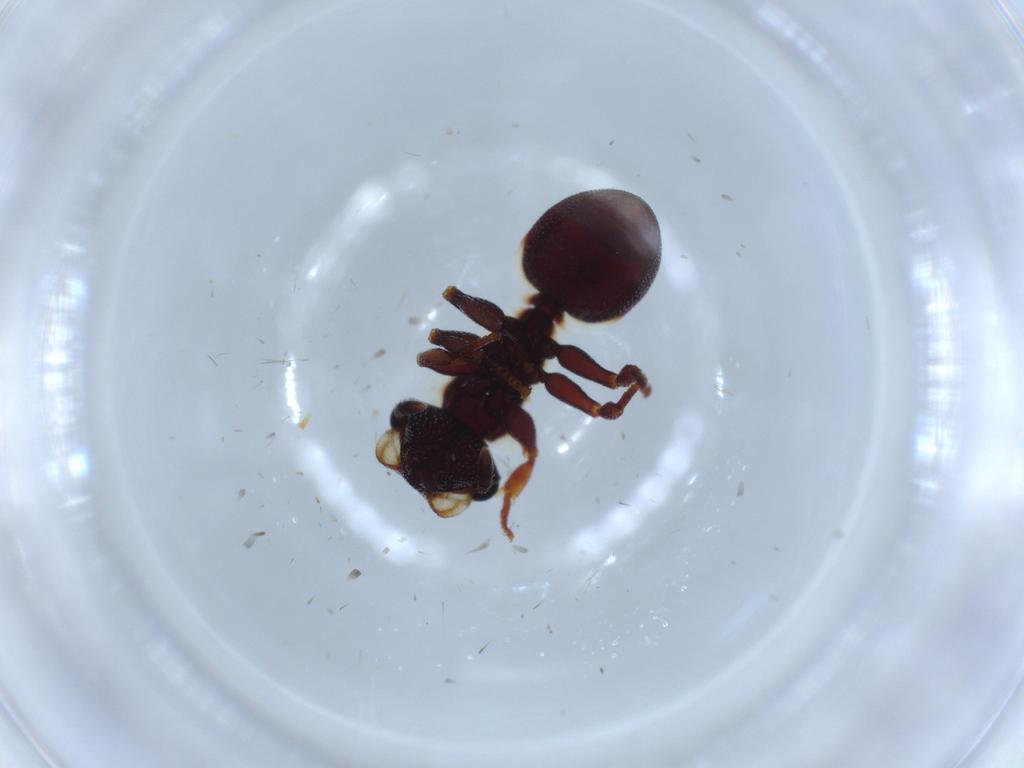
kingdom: Animalia
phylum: Arthropoda
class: Insecta
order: Hymenoptera
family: Formicidae
